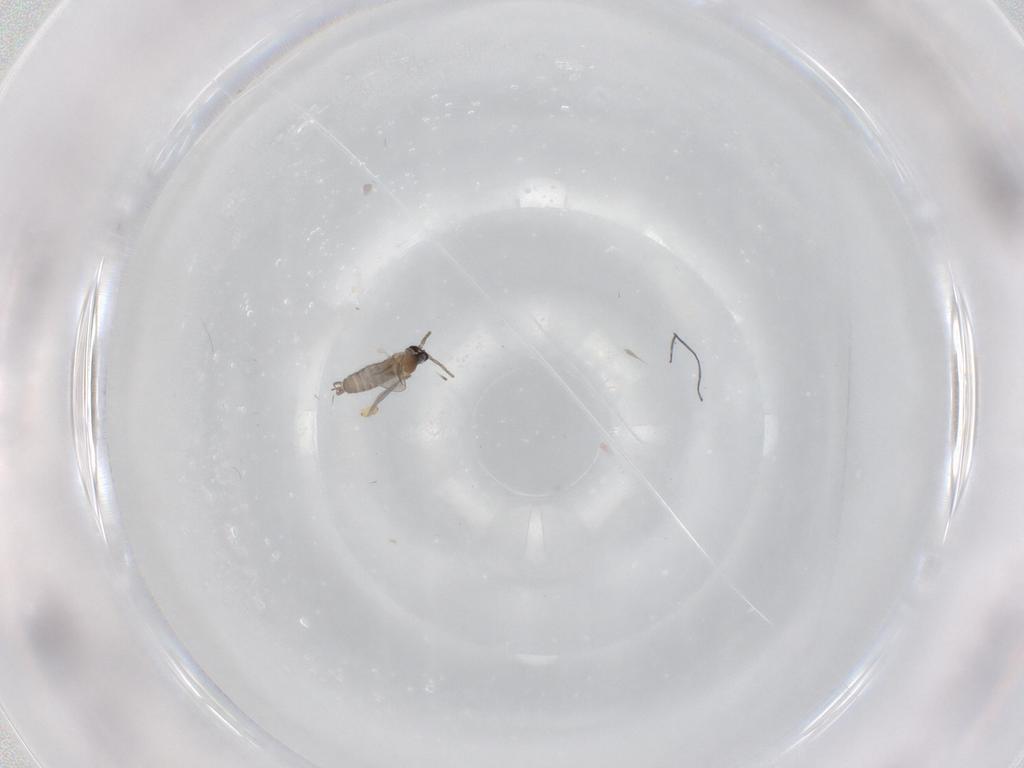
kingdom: Animalia
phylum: Arthropoda
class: Insecta
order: Diptera
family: Cecidomyiidae
